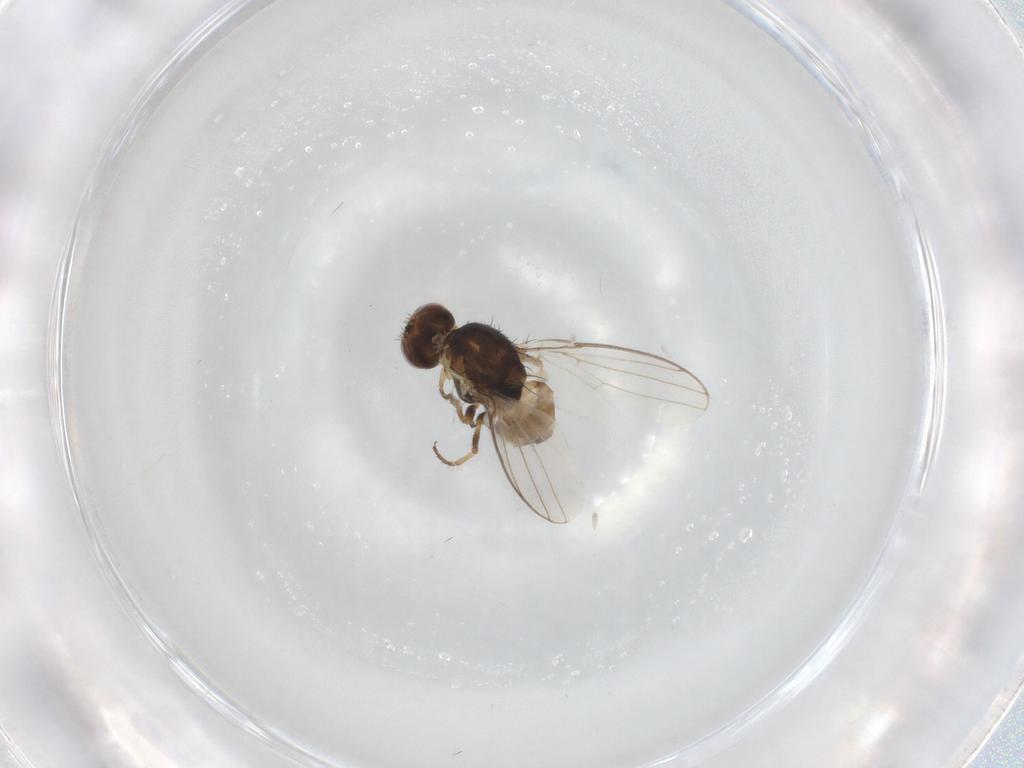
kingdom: Animalia
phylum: Arthropoda
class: Insecta
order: Diptera
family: Chloropidae
